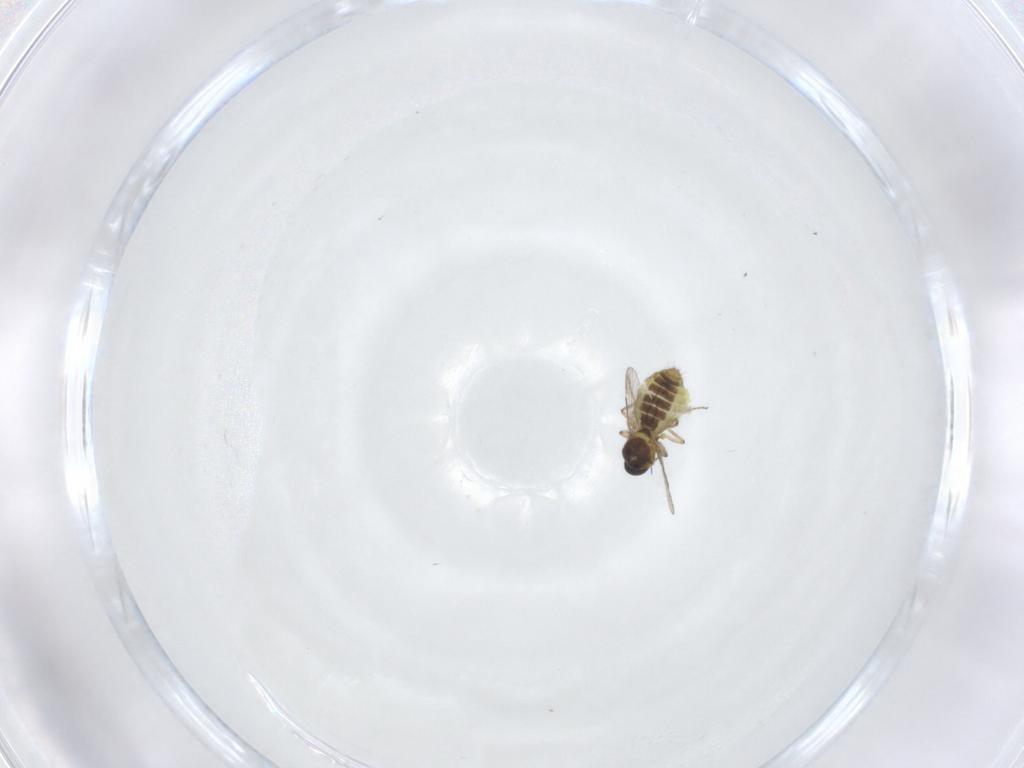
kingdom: Animalia
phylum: Arthropoda
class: Insecta
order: Diptera
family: Ceratopogonidae
